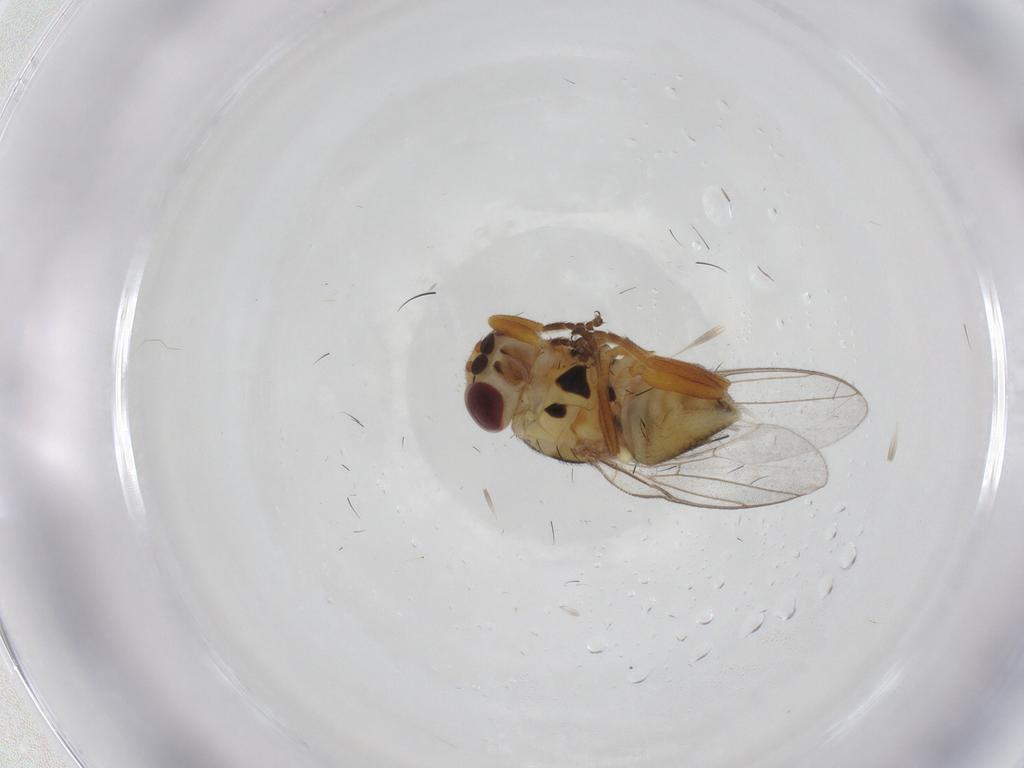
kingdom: Animalia
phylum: Arthropoda
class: Insecta
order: Diptera
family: Chloropidae
